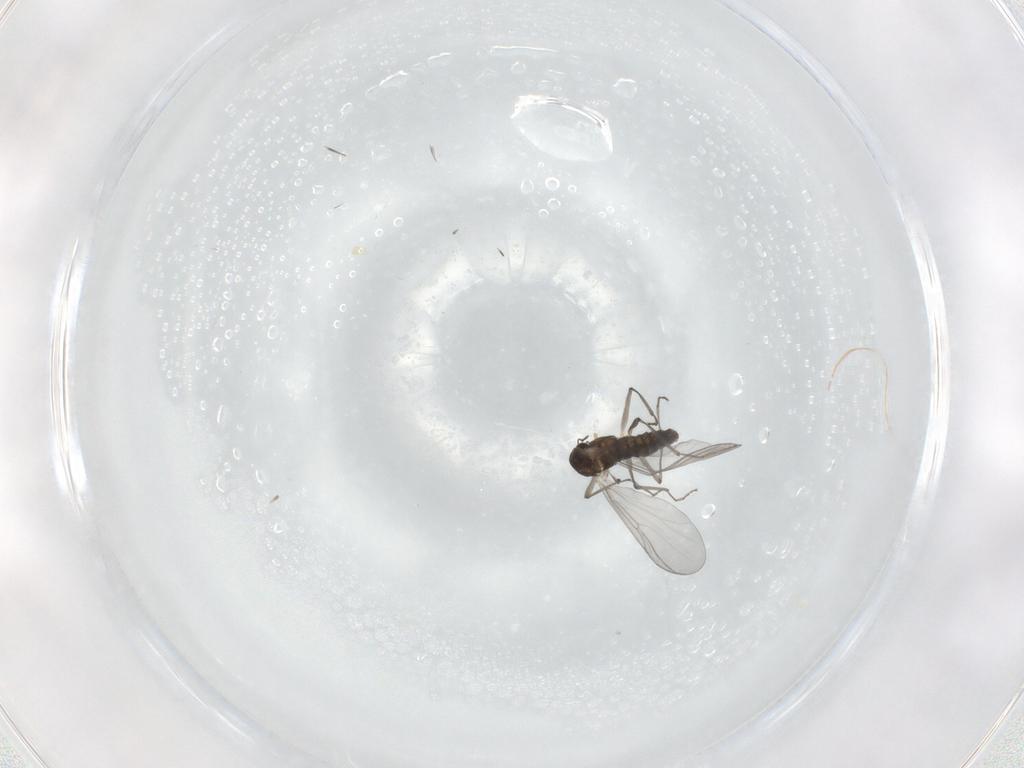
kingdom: Animalia
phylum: Arthropoda
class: Insecta
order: Diptera
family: Chironomidae
